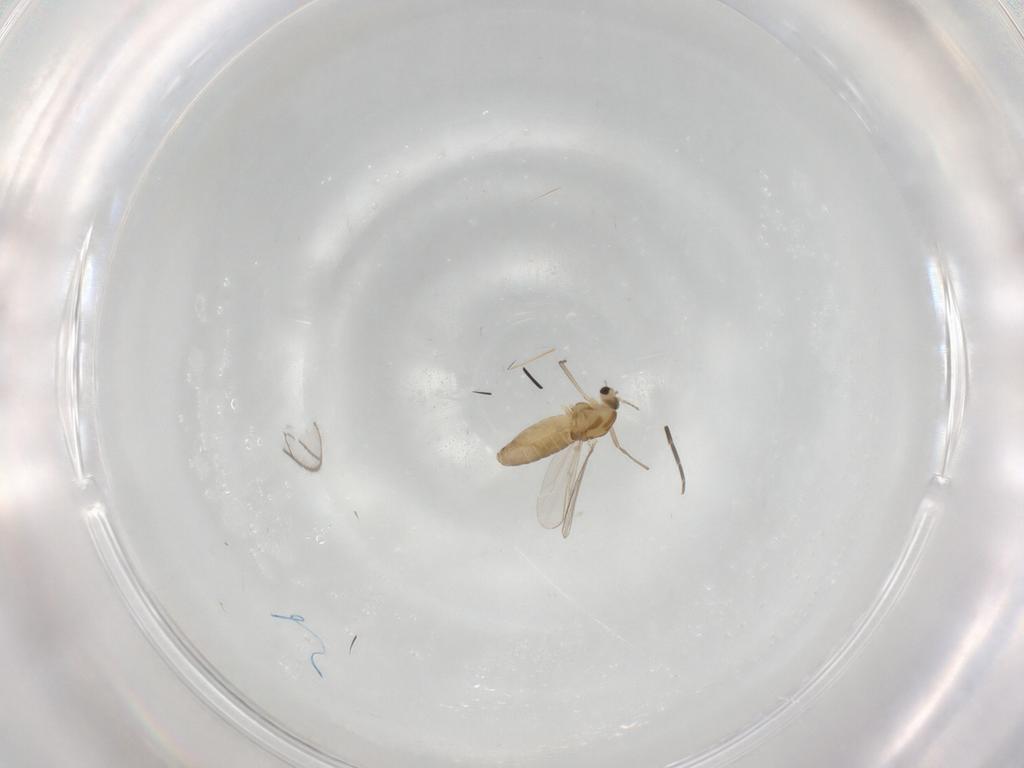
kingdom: Animalia
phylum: Arthropoda
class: Insecta
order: Diptera
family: Chironomidae
